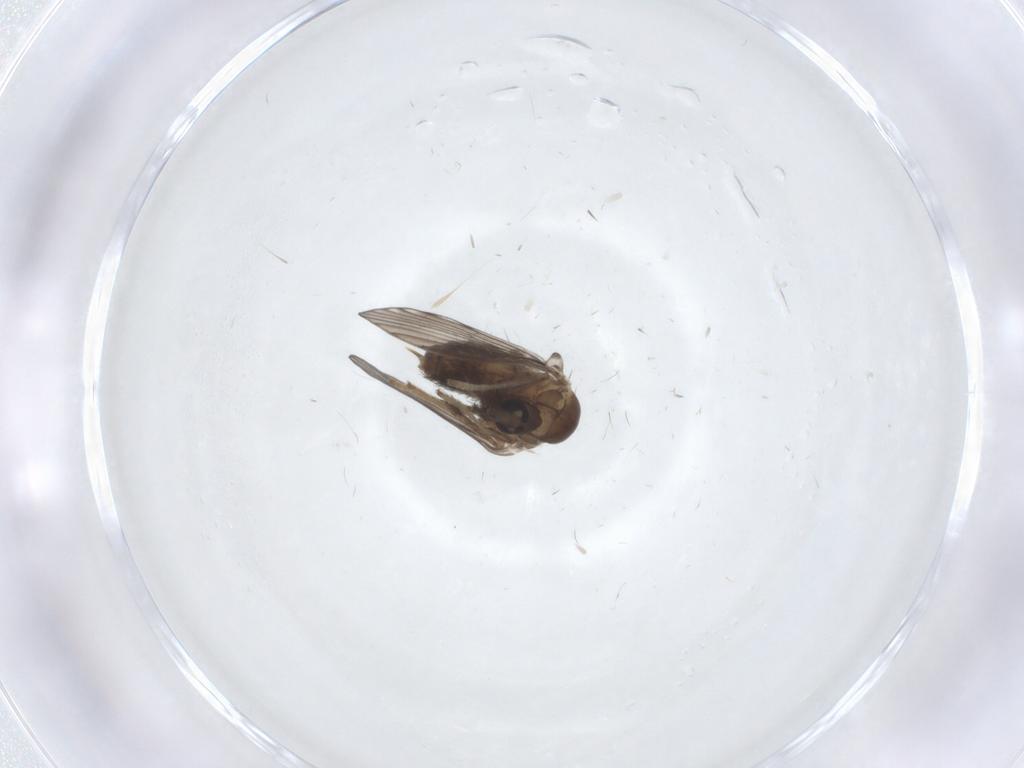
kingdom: Animalia
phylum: Arthropoda
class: Insecta
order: Diptera
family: Psychodidae
